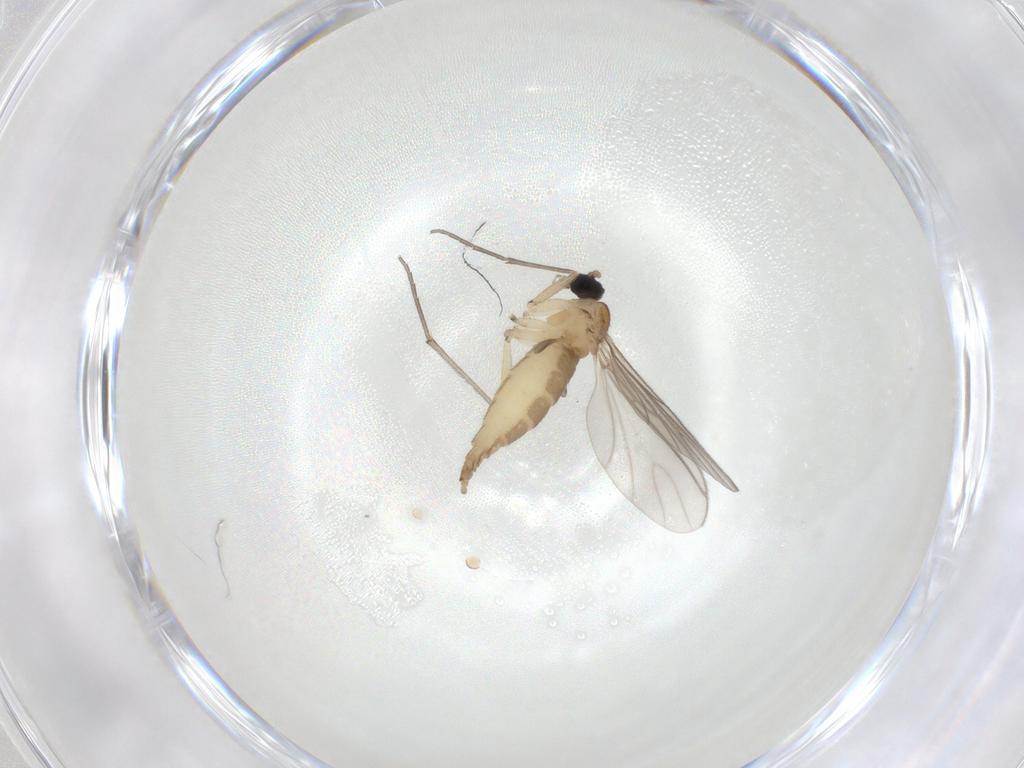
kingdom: Animalia
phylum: Arthropoda
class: Insecta
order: Diptera
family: Sciaridae
